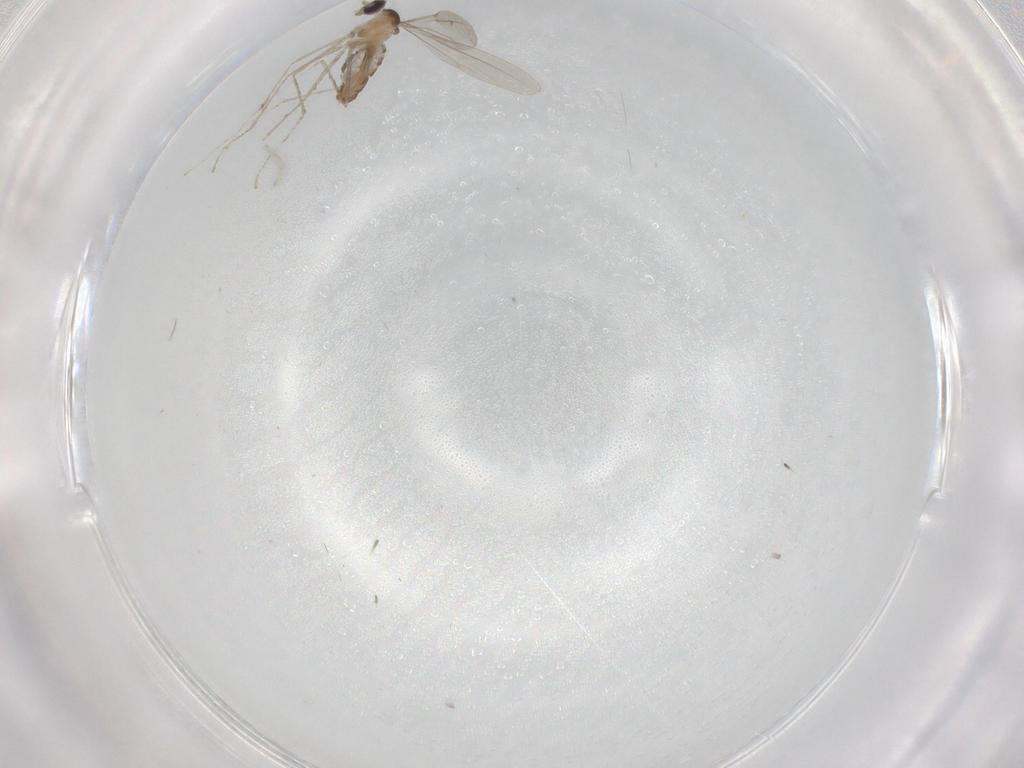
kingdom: Animalia
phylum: Arthropoda
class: Insecta
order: Diptera
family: Cecidomyiidae
